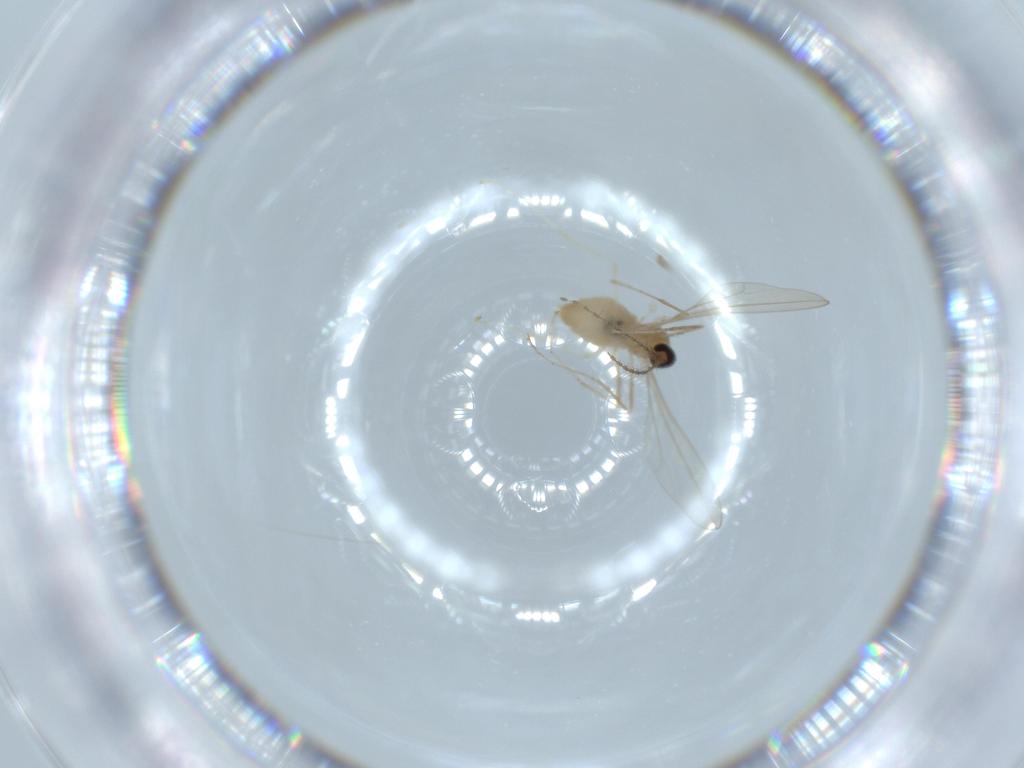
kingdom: Animalia
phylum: Arthropoda
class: Insecta
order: Diptera
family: Cecidomyiidae
